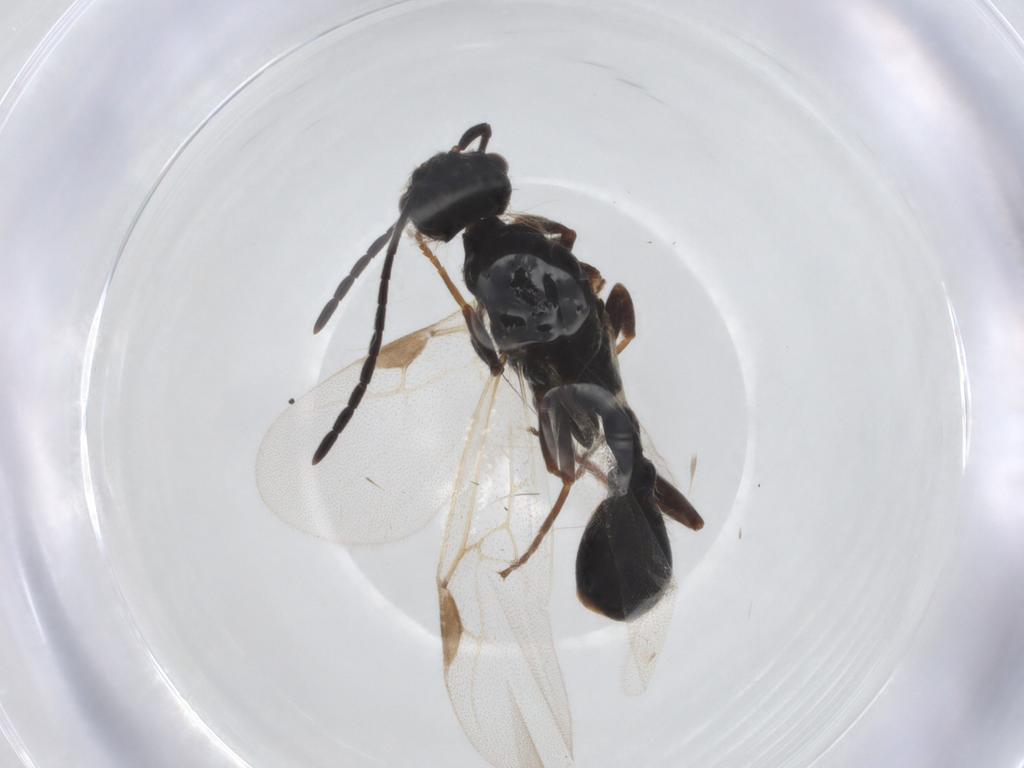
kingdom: Animalia
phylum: Arthropoda
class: Insecta
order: Hymenoptera
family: Formicidae
